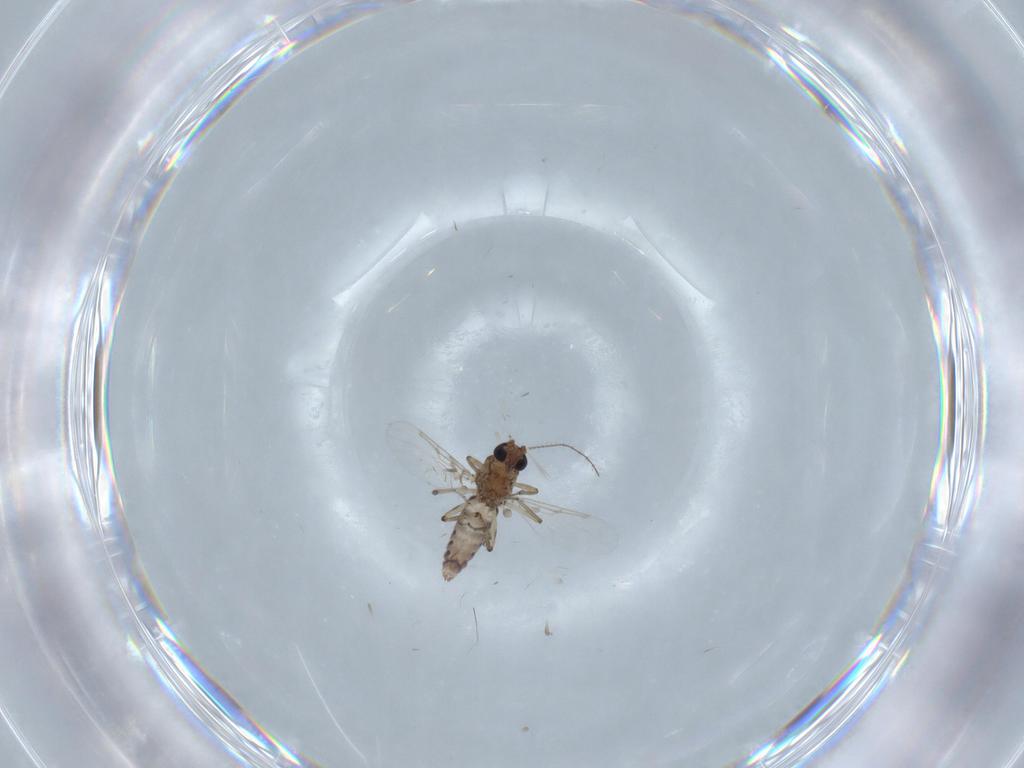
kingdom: Animalia
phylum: Arthropoda
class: Insecta
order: Diptera
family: Ceratopogonidae
